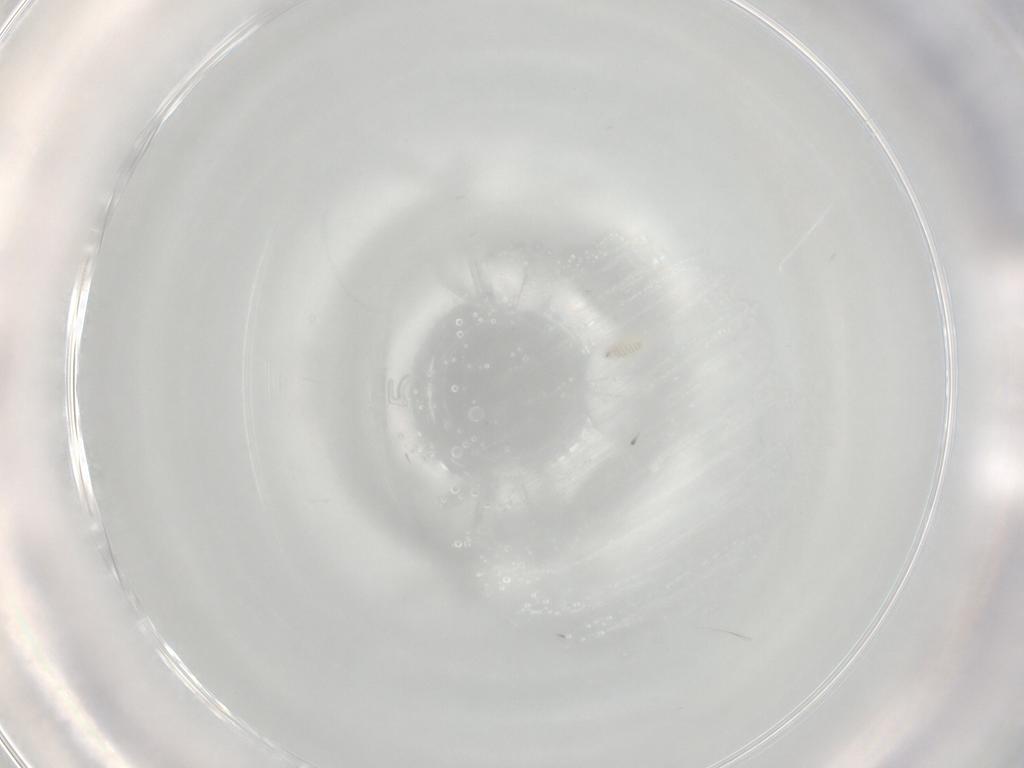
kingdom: Animalia
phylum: Arthropoda
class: Insecta
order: Diptera
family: Drosophilidae
